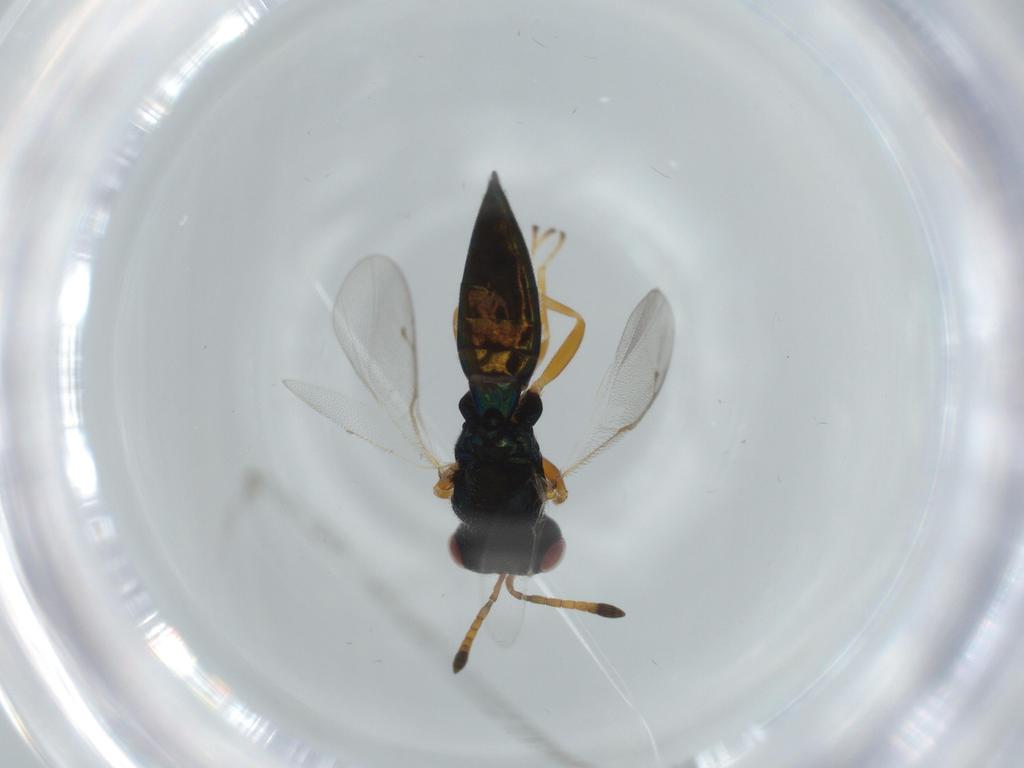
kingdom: Animalia
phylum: Arthropoda
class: Insecta
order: Hymenoptera
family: Pteromalidae
